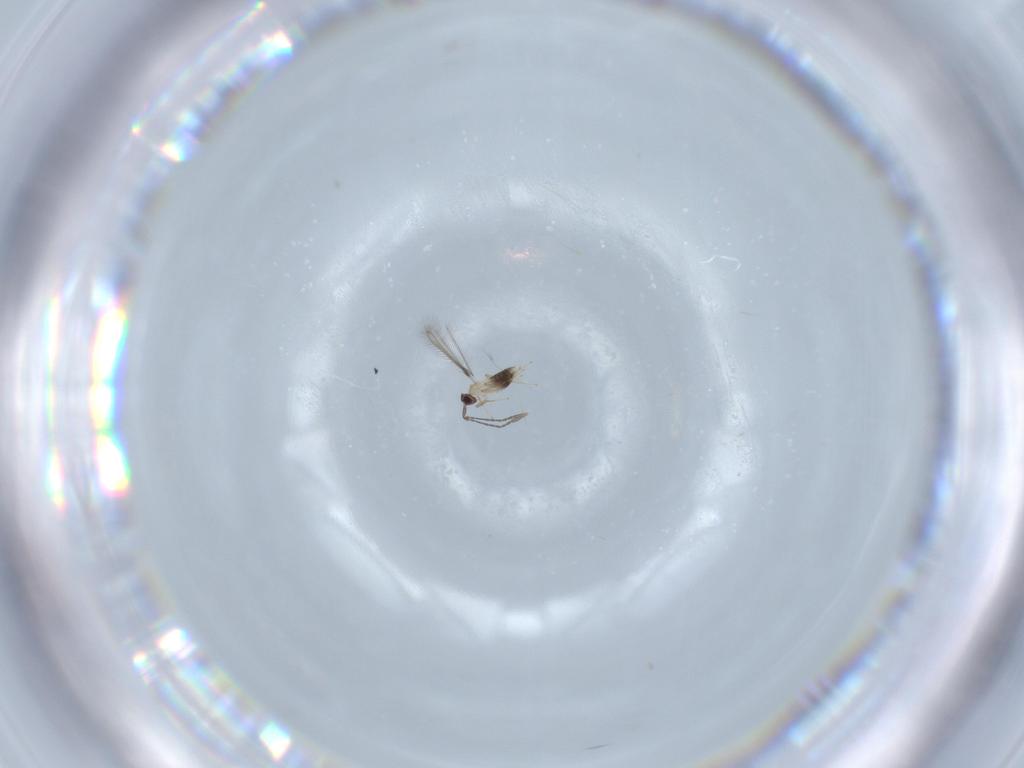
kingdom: Animalia
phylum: Arthropoda
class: Insecta
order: Hymenoptera
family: Mymaridae
